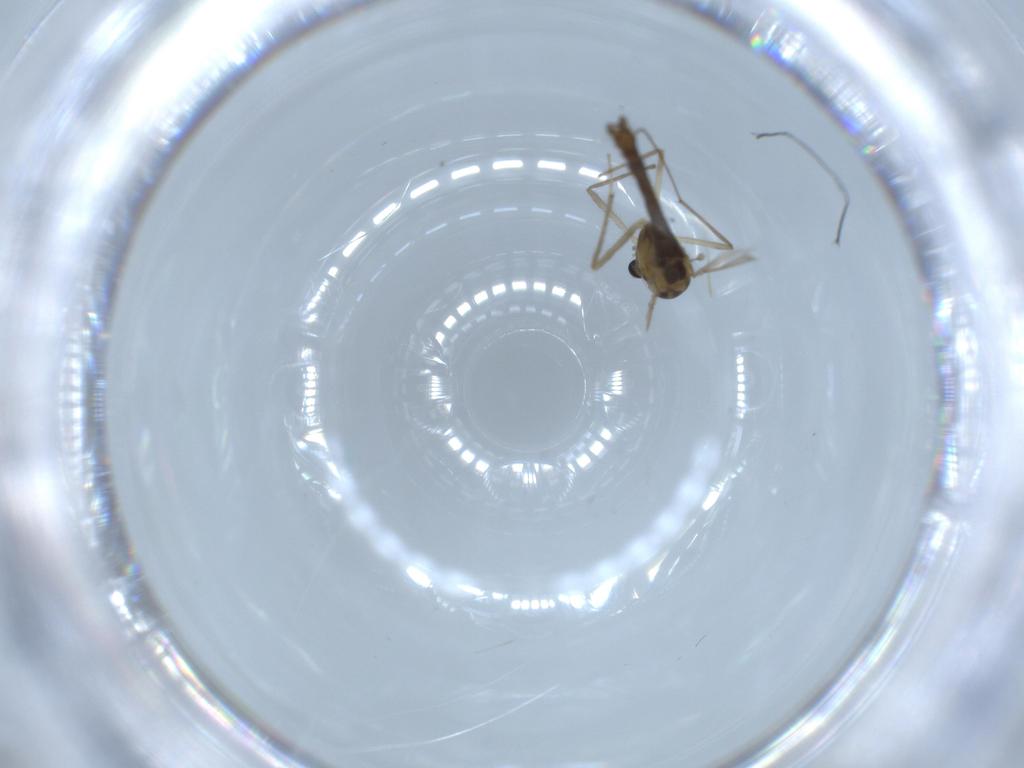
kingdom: Animalia
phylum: Arthropoda
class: Insecta
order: Diptera
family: Chironomidae
